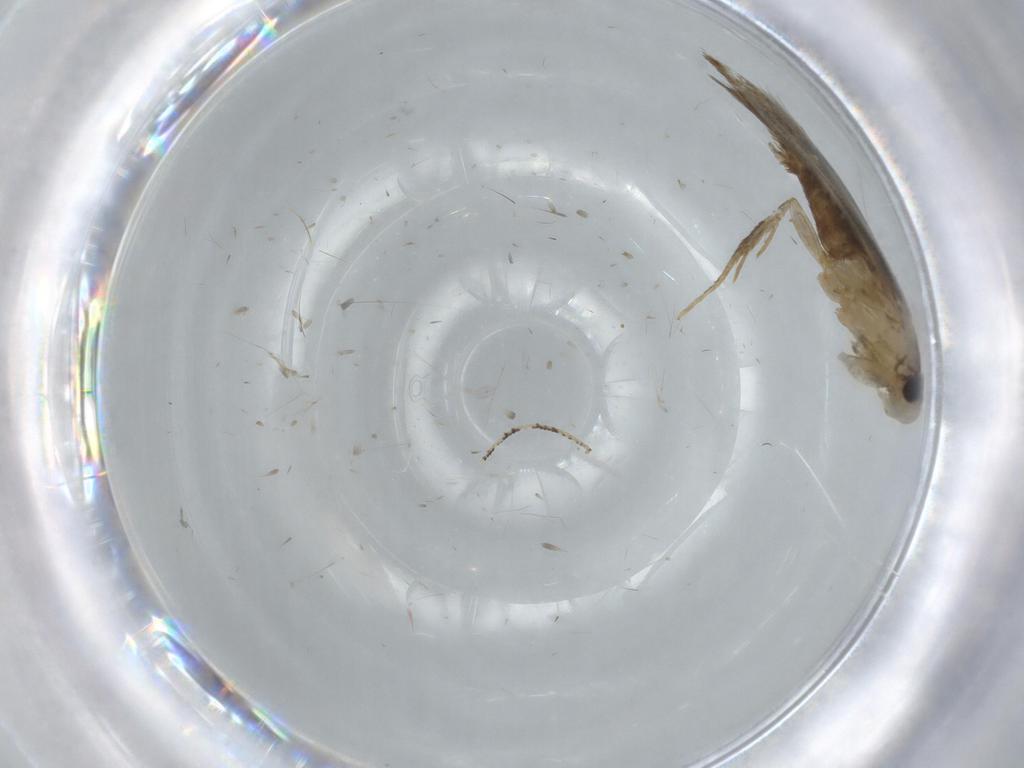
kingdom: Animalia
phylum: Arthropoda
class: Insecta
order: Lepidoptera
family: Tineidae
